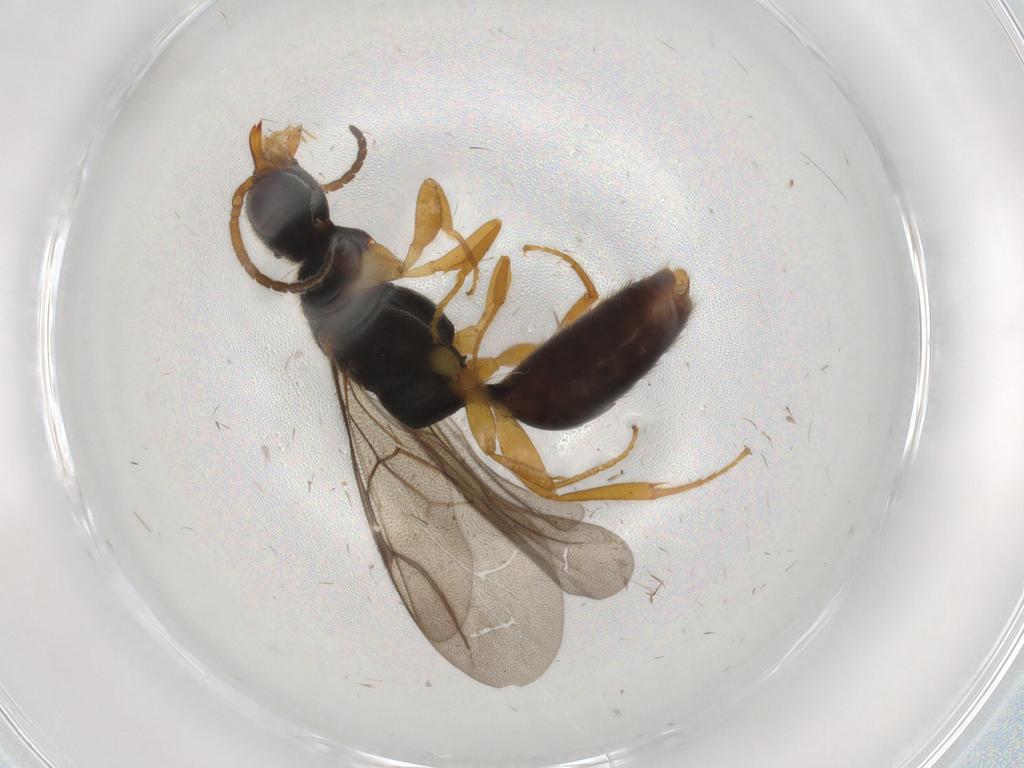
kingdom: Animalia
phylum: Arthropoda
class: Insecta
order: Hymenoptera
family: Bethylidae
